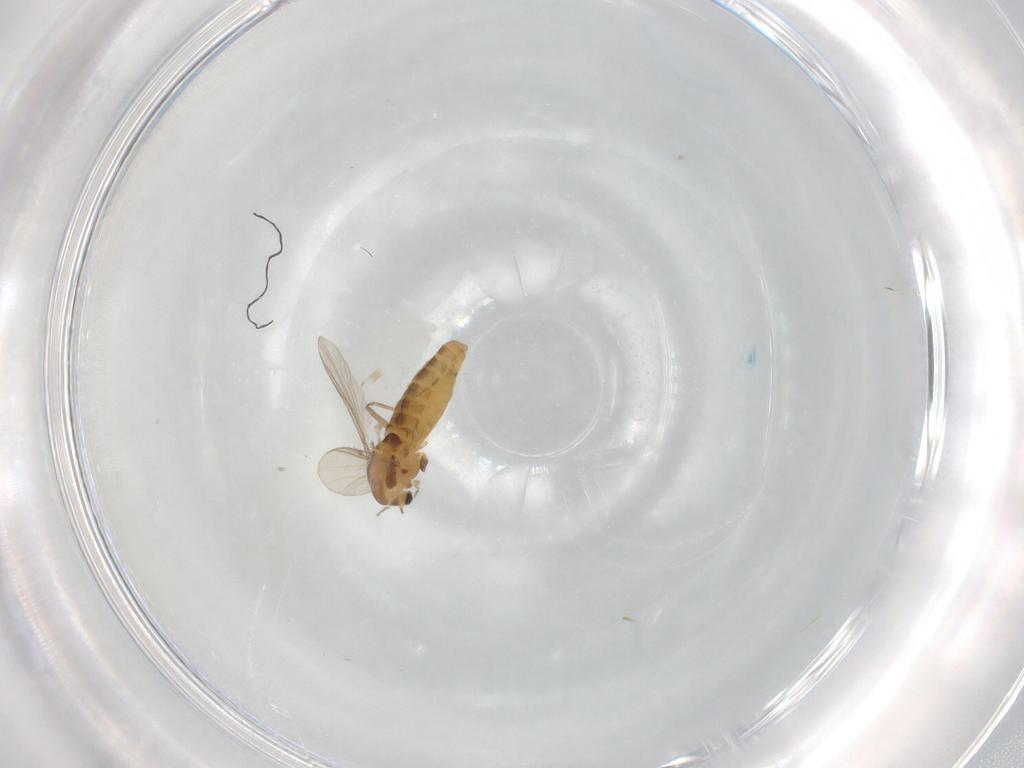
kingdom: Animalia
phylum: Arthropoda
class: Insecta
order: Diptera
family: Chironomidae
